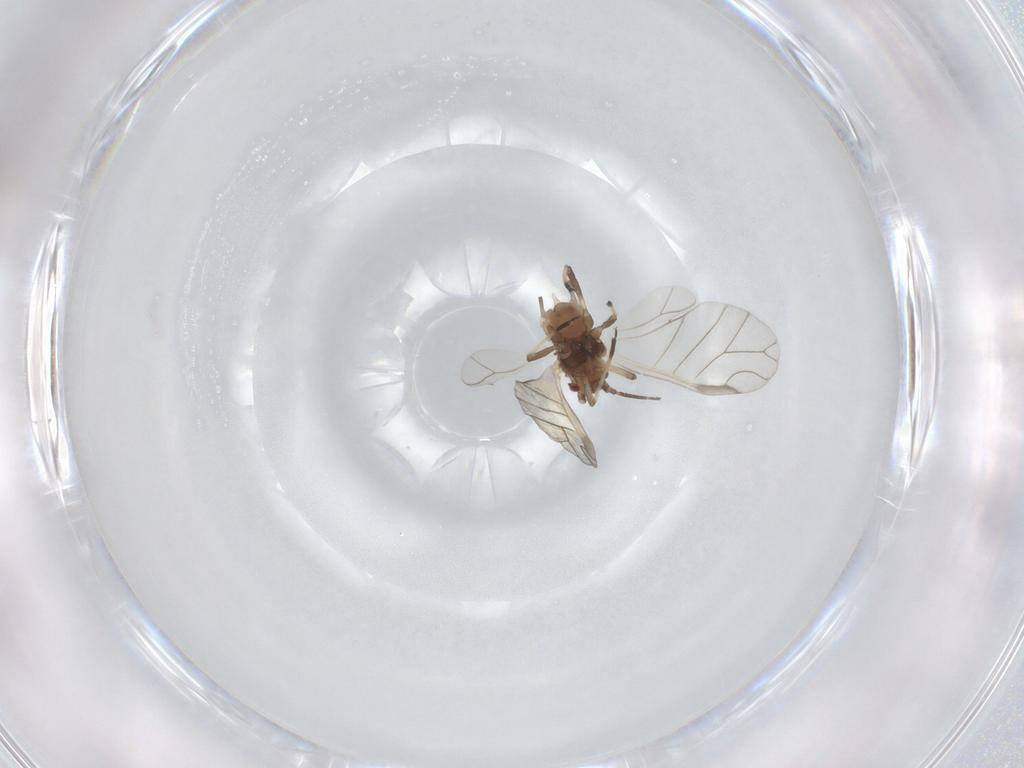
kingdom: Animalia
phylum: Arthropoda
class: Insecta
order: Hemiptera
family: Aphididae
